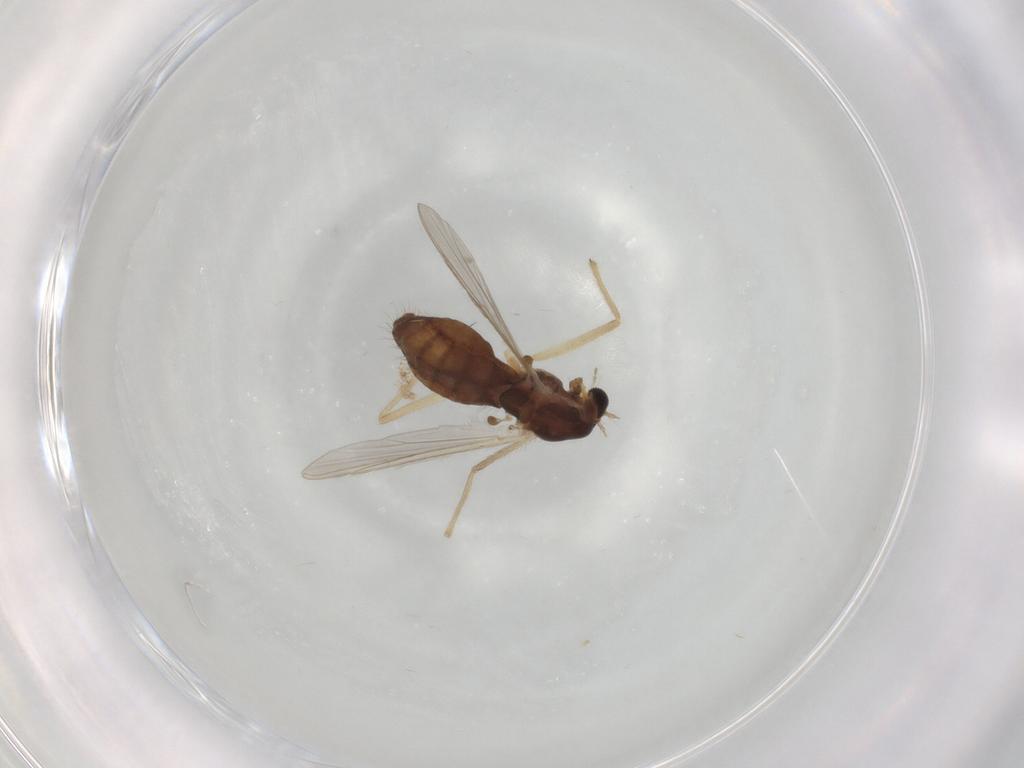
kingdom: Animalia
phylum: Arthropoda
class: Insecta
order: Diptera
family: Chironomidae
